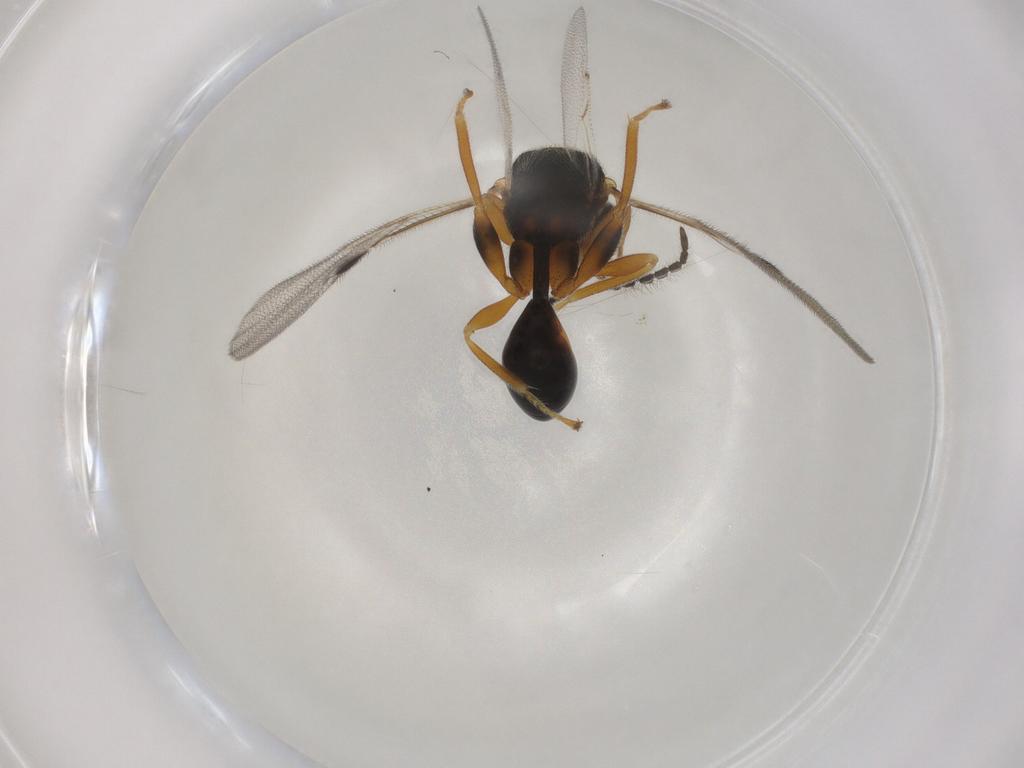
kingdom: Animalia
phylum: Arthropoda
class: Insecta
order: Hymenoptera
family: Eurytomidae
